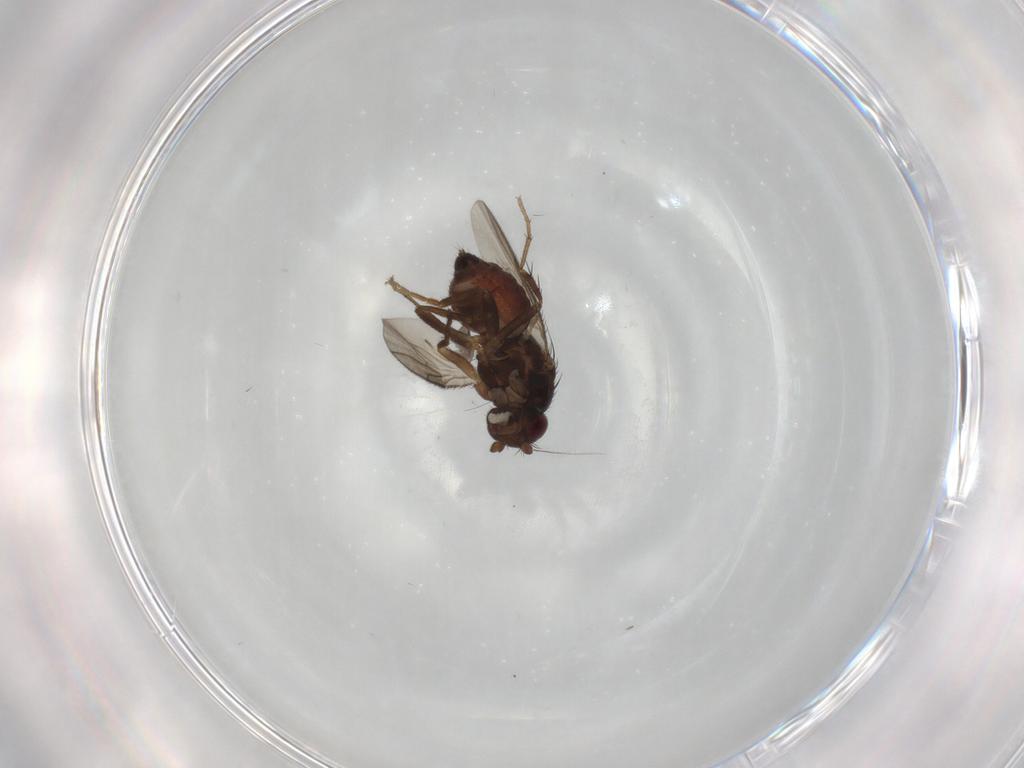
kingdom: Animalia
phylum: Arthropoda
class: Insecta
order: Diptera
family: Sphaeroceridae
